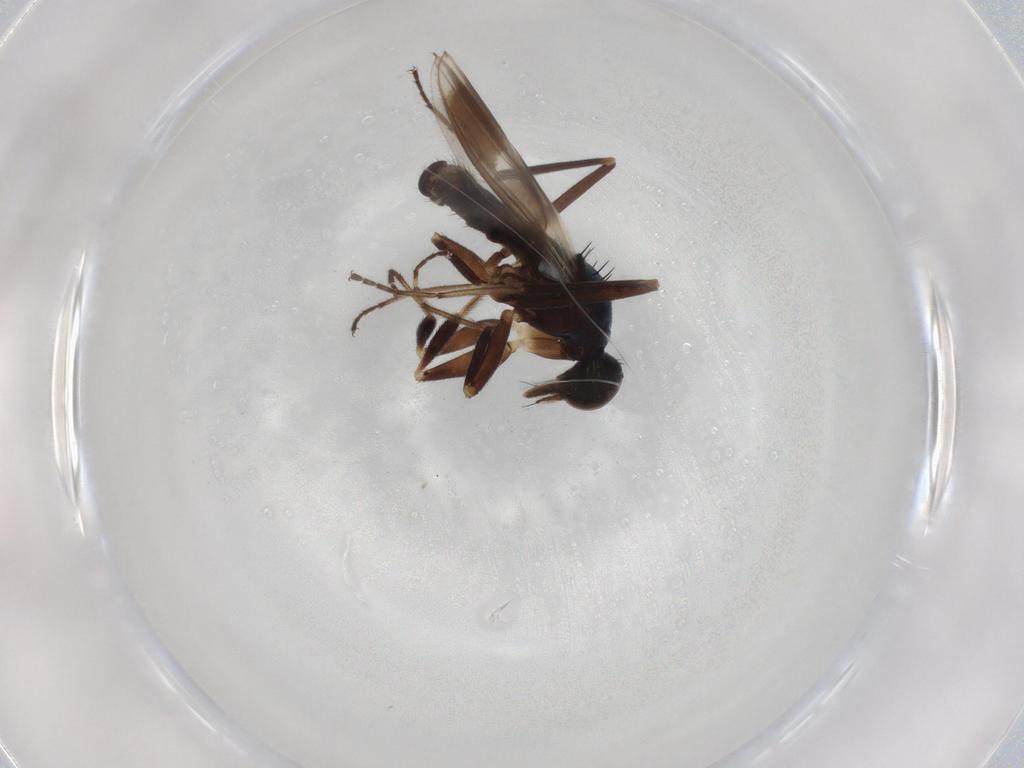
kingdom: Animalia
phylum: Arthropoda
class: Insecta
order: Diptera
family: Hybotidae
